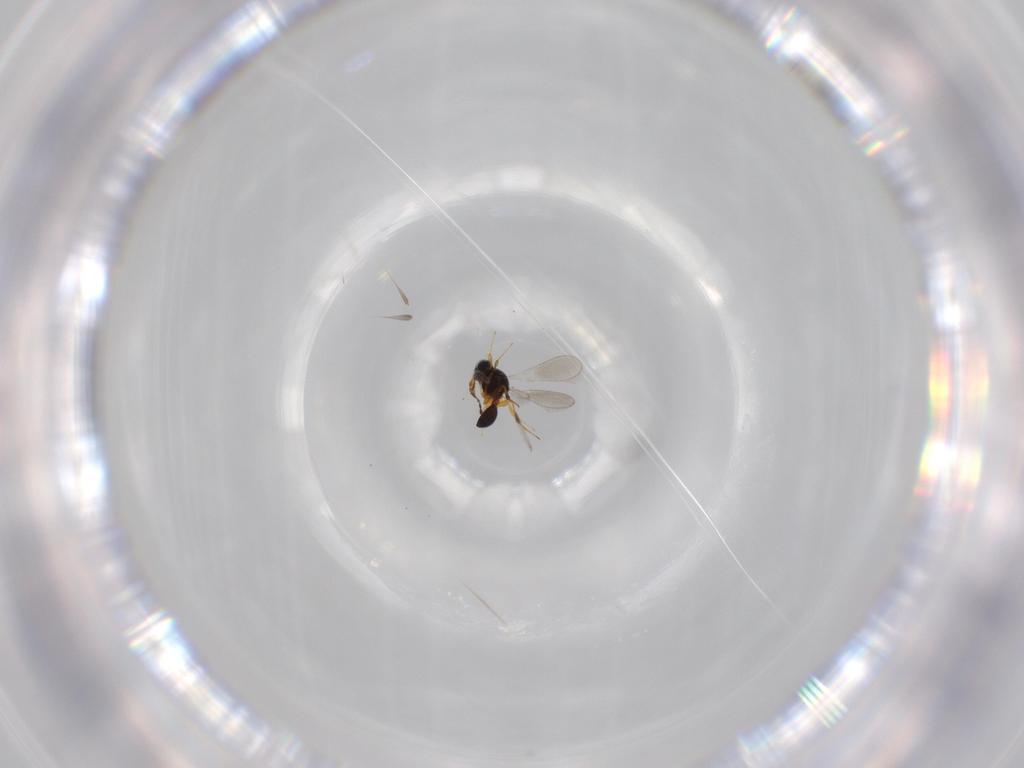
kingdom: Animalia
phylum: Arthropoda
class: Insecta
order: Hymenoptera
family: Platygastridae
